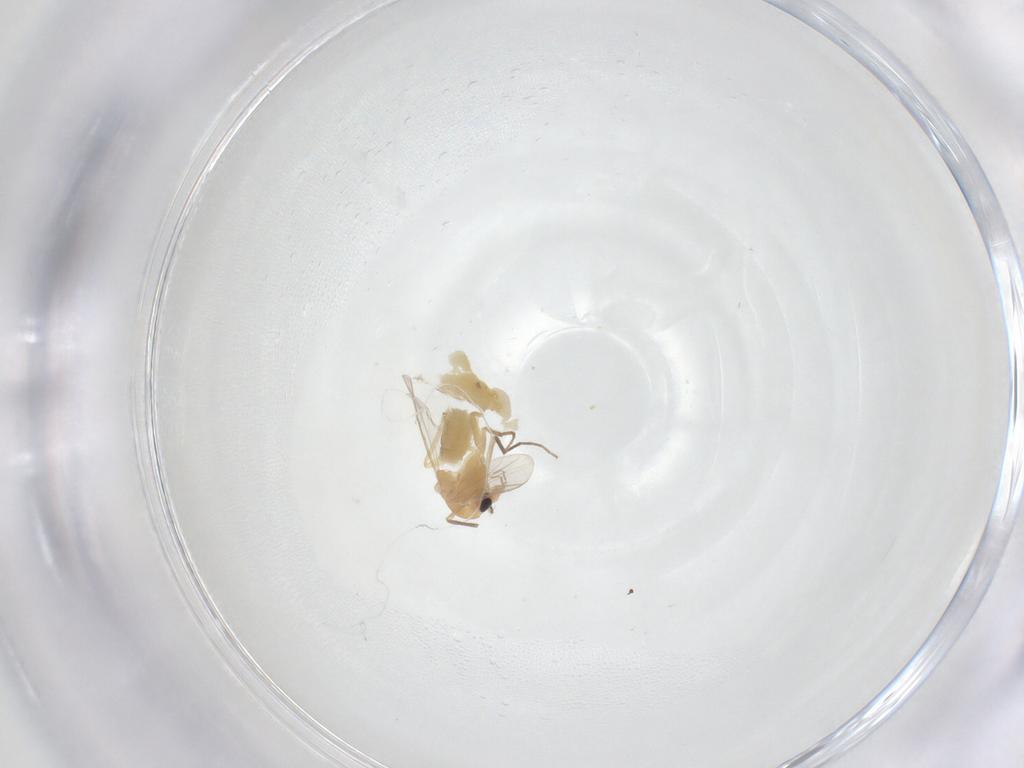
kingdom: Animalia
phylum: Arthropoda
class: Insecta
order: Diptera
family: Chironomidae
